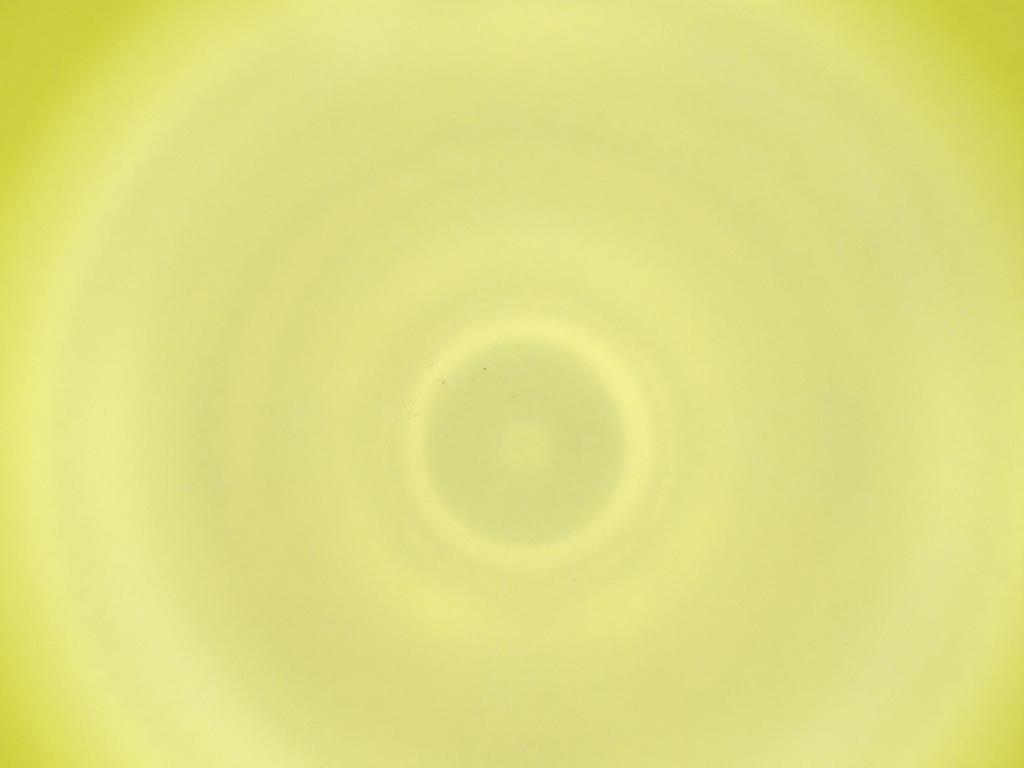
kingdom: Animalia
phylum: Arthropoda
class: Insecta
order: Diptera
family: Cecidomyiidae
